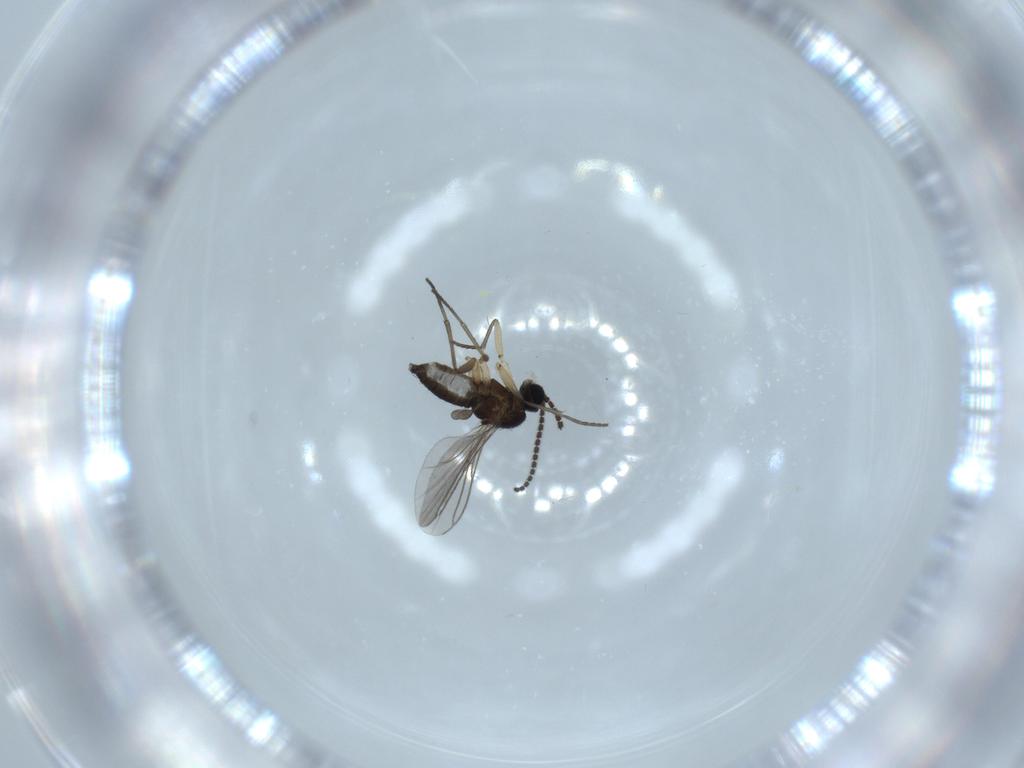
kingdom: Animalia
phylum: Arthropoda
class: Insecta
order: Diptera
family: Sciaridae
